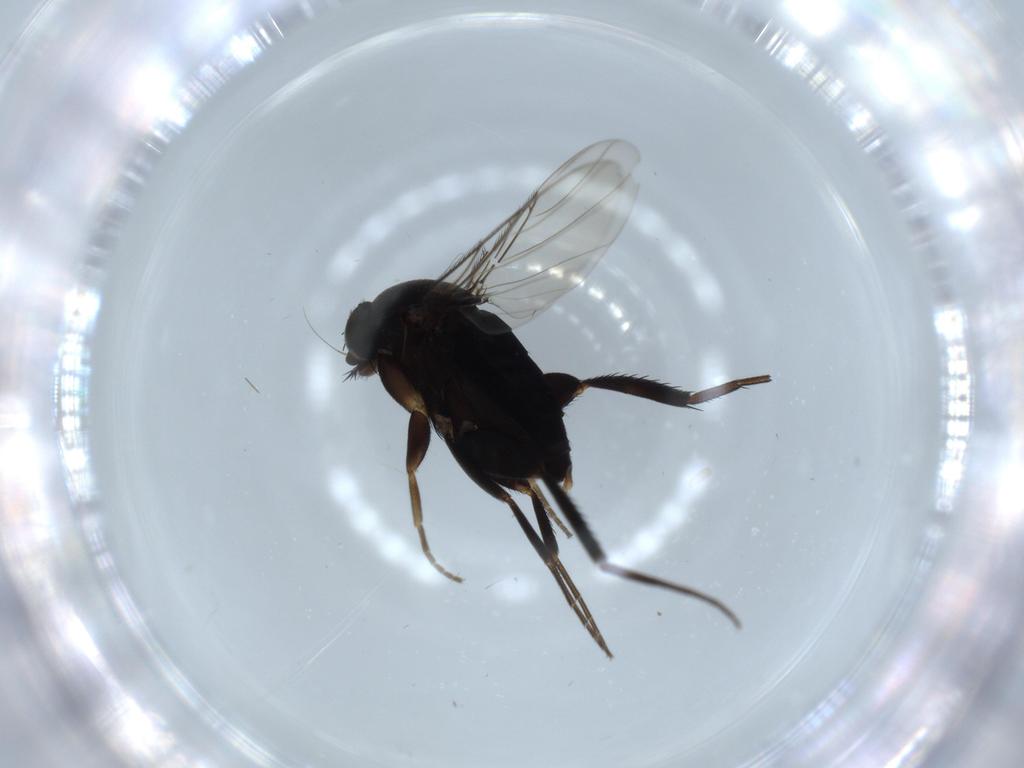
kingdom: Animalia
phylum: Arthropoda
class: Insecta
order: Diptera
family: Phoridae
